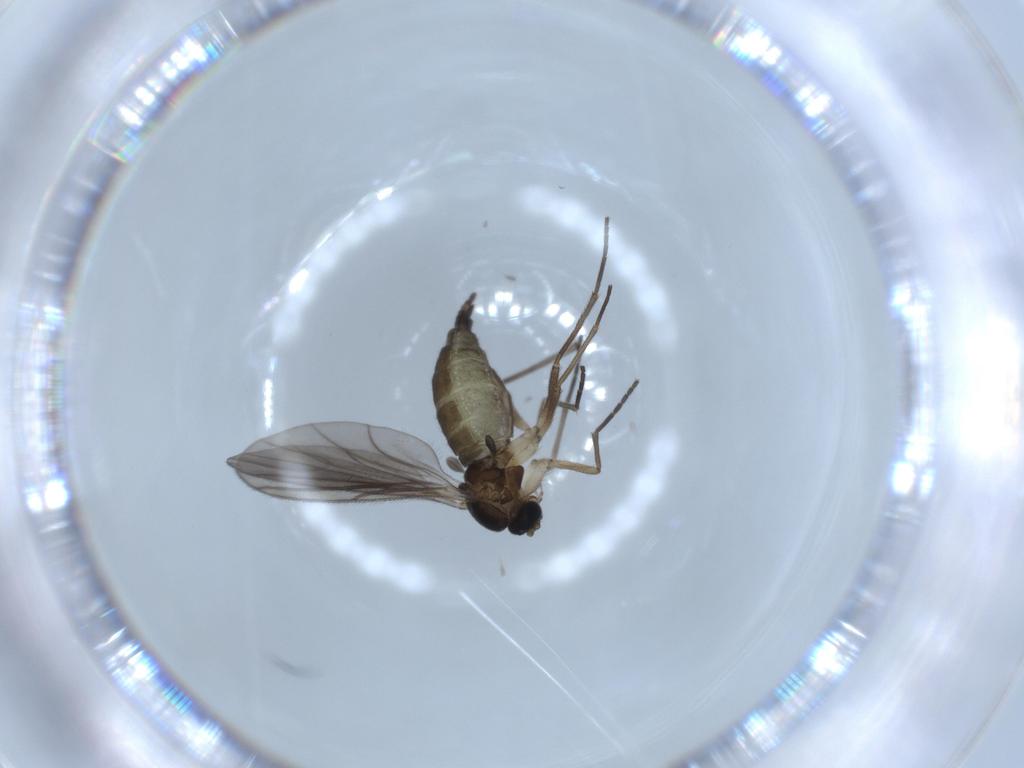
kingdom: Animalia
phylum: Arthropoda
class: Insecta
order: Diptera
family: Sciaridae
